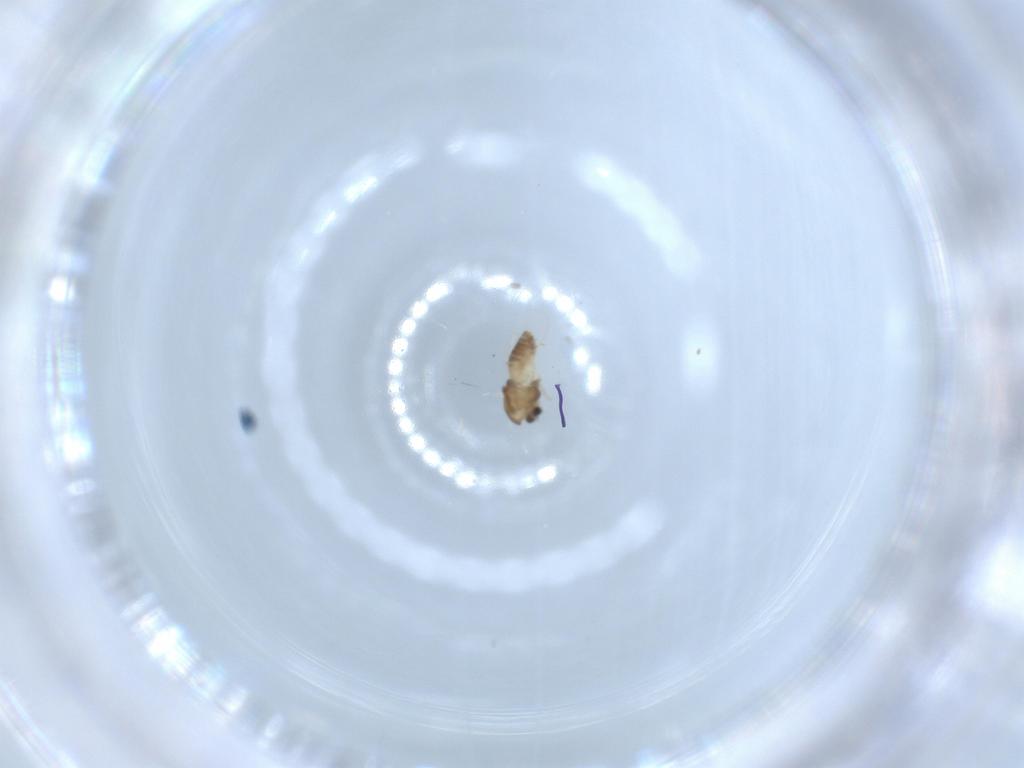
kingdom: Animalia
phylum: Arthropoda
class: Insecta
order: Diptera
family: Chironomidae
